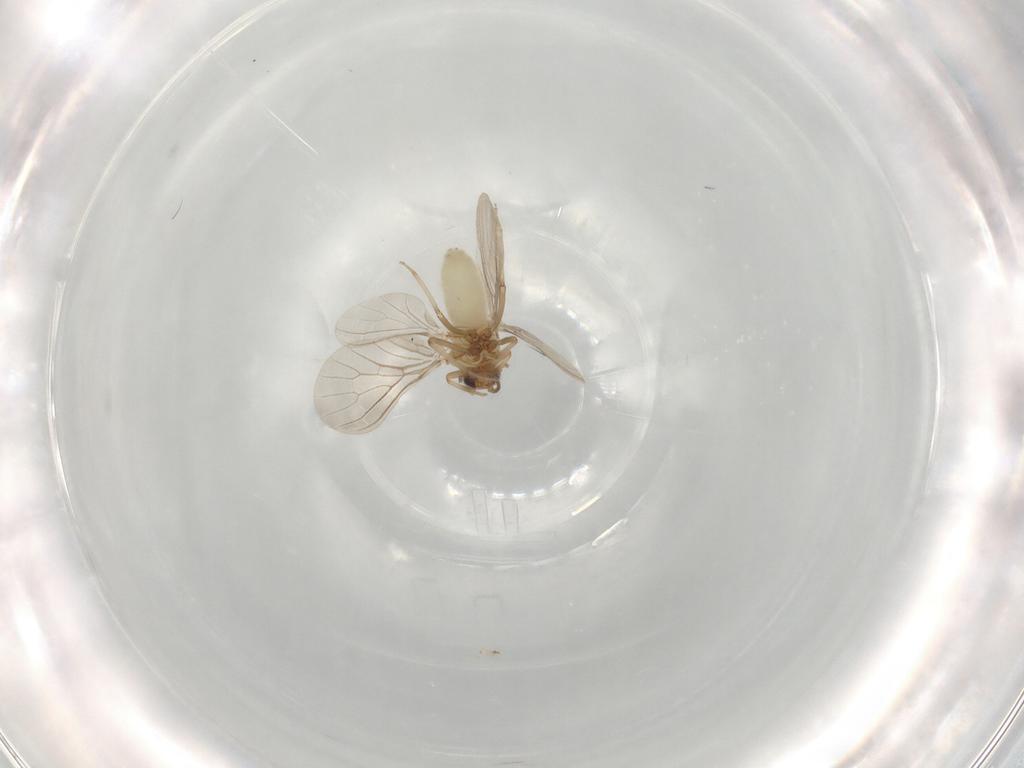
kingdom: Animalia
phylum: Arthropoda
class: Insecta
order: Neuroptera
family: Coniopterygidae
